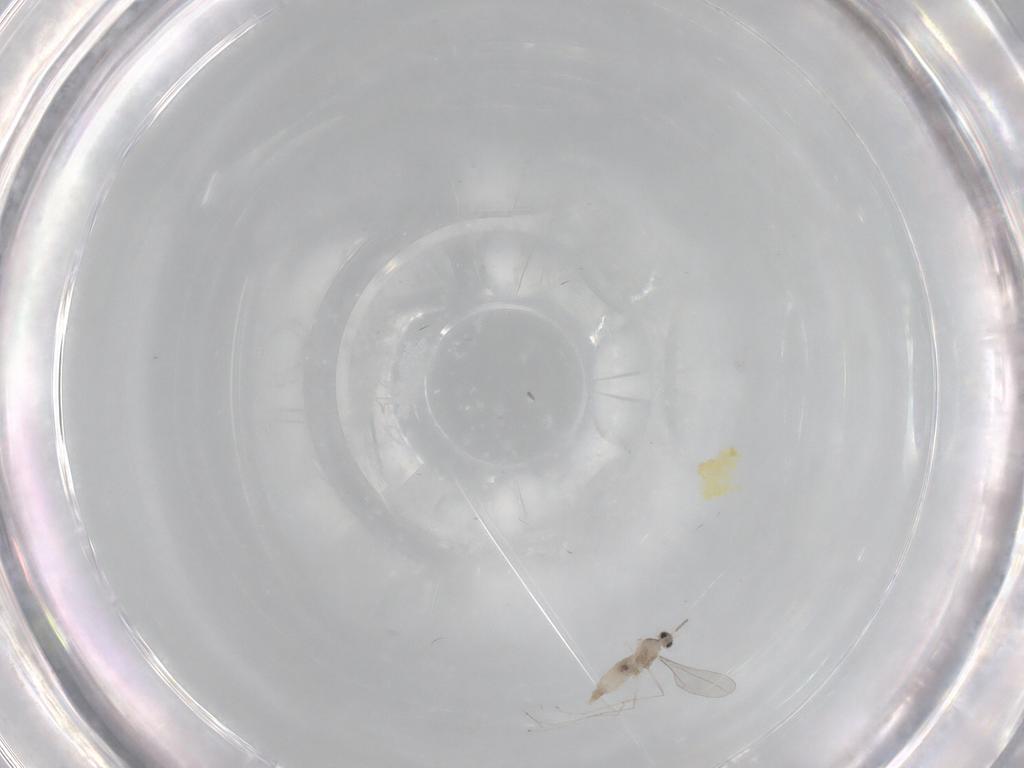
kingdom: Animalia
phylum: Arthropoda
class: Insecta
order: Diptera
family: Cecidomyiidae
